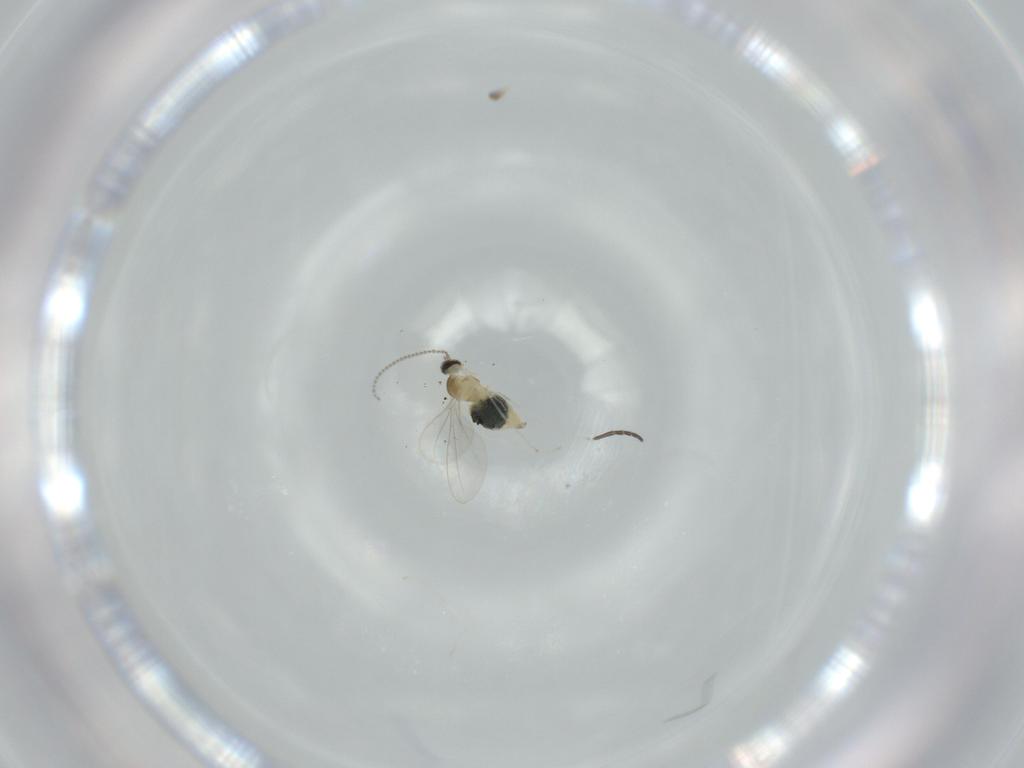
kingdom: Animalia
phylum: Arthropoda
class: Insecta
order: Diptera
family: Cecidomyiidae
